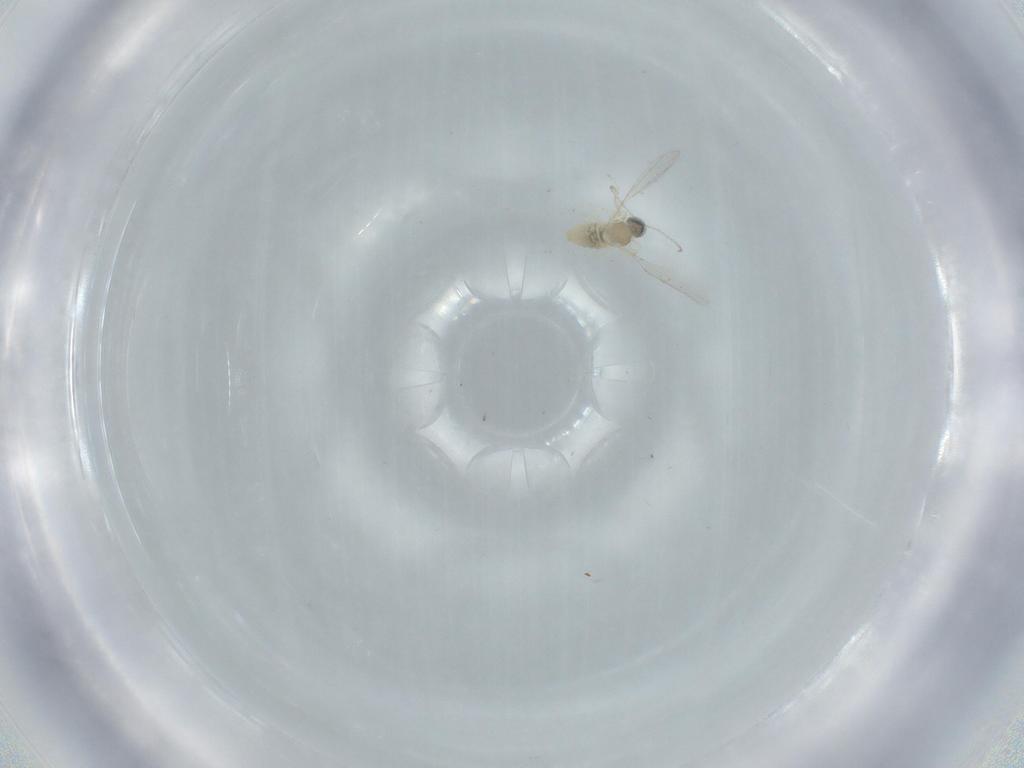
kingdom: Animalia
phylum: Arthropoda
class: Insecta
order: Diptera
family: Cecidomyiidae
